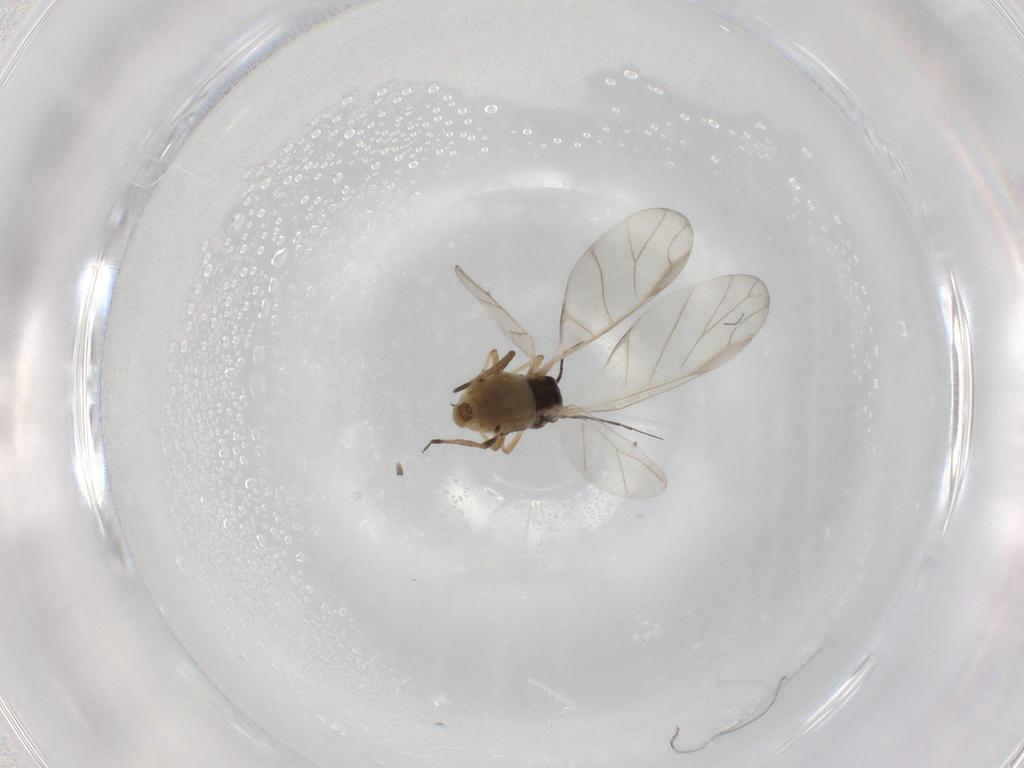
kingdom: Animalia
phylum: Arthropoda
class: Insecta
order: Hemiptera
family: Aphididae
